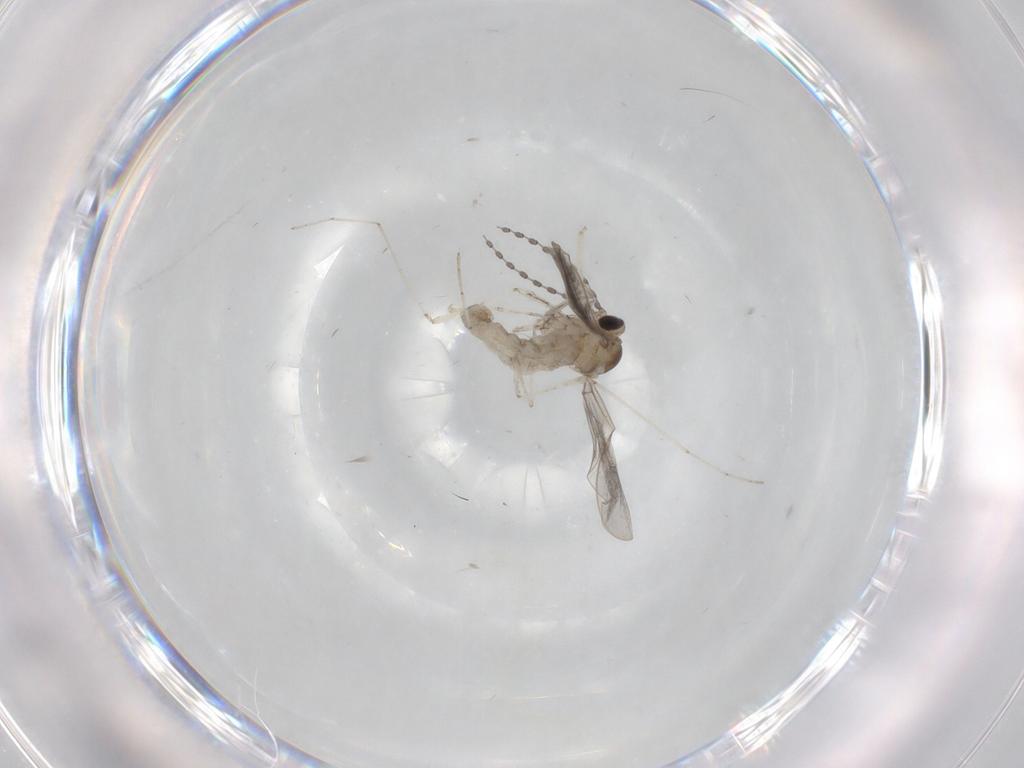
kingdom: Animalia
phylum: Arthropoda
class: Insecta
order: Diptera
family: Cecidomyiidae
